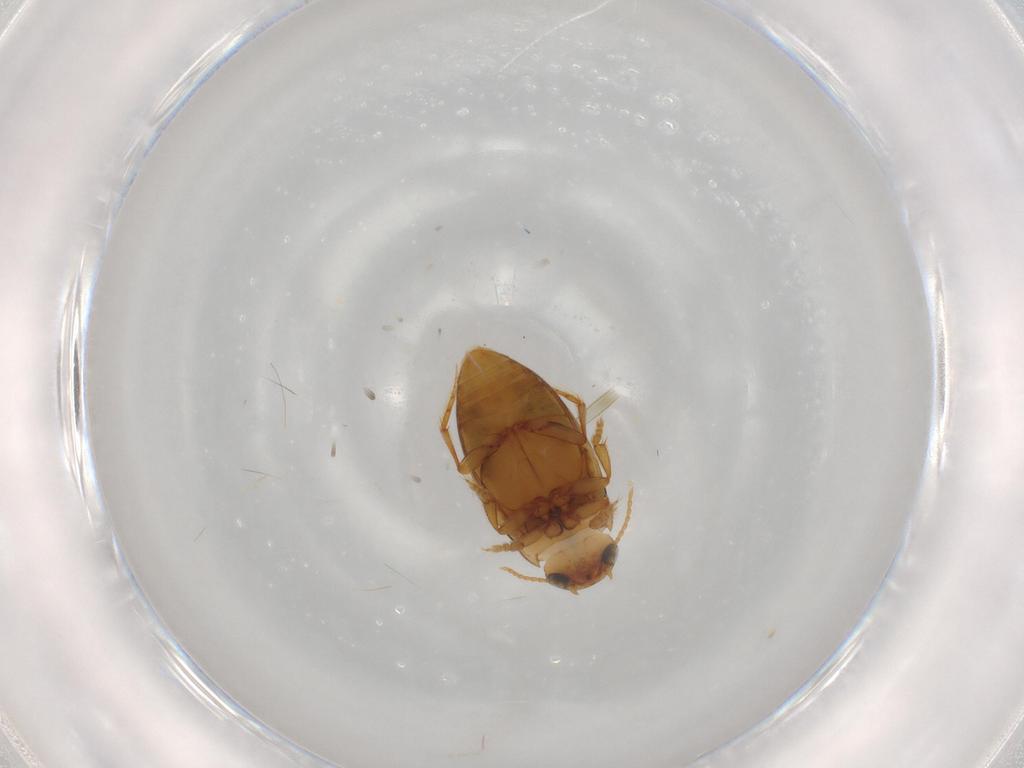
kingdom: Animalia
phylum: Arthropoda
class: Insecta
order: Coleoptera
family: Dytiscidae
